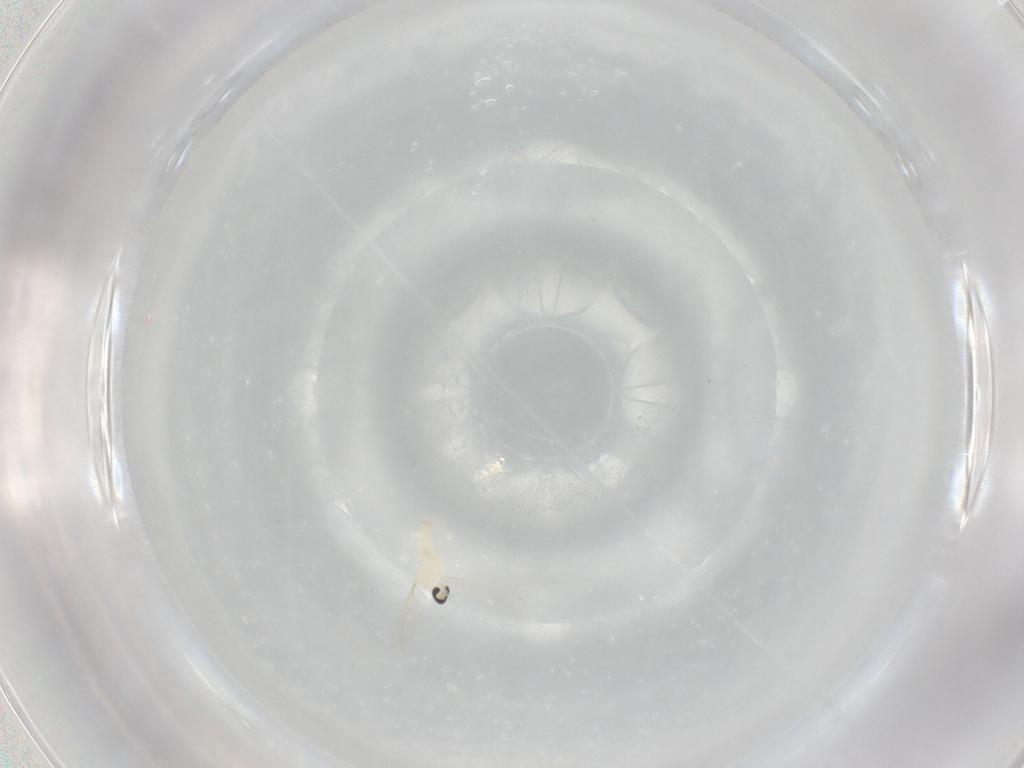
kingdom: Animalia
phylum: Arthropoda
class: Insecta
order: Diptera
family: Cecidomyiidae
